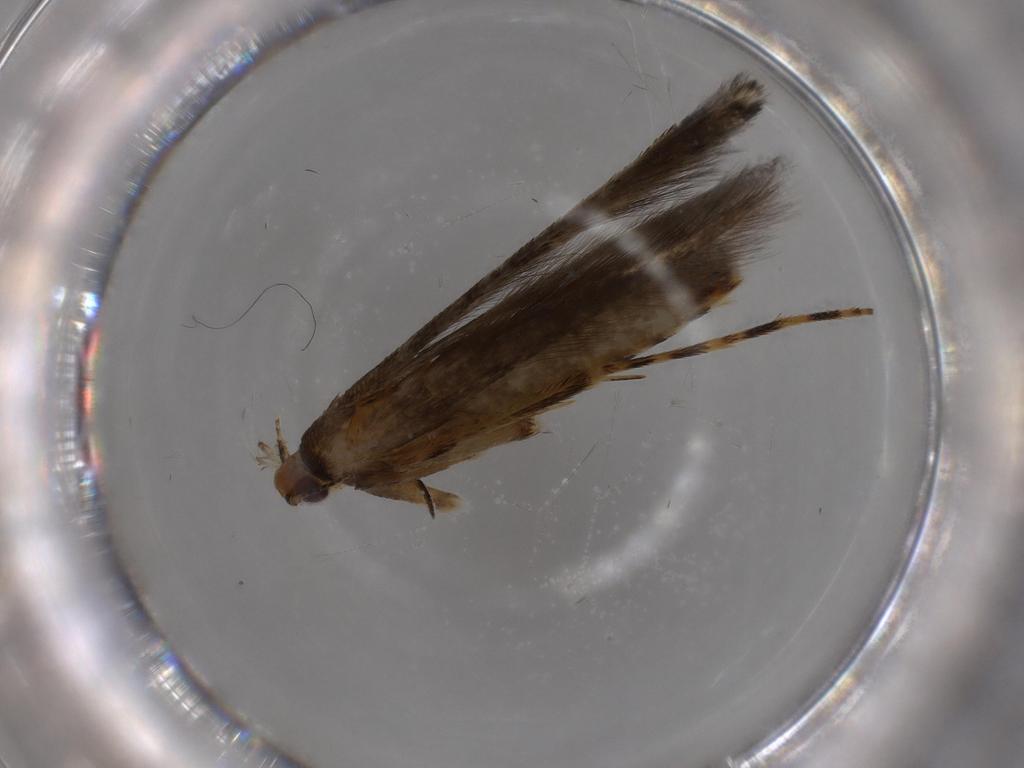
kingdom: Animalia
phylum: Arthropoda
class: Insecta
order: Lepidoptera
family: Gracillariidae
